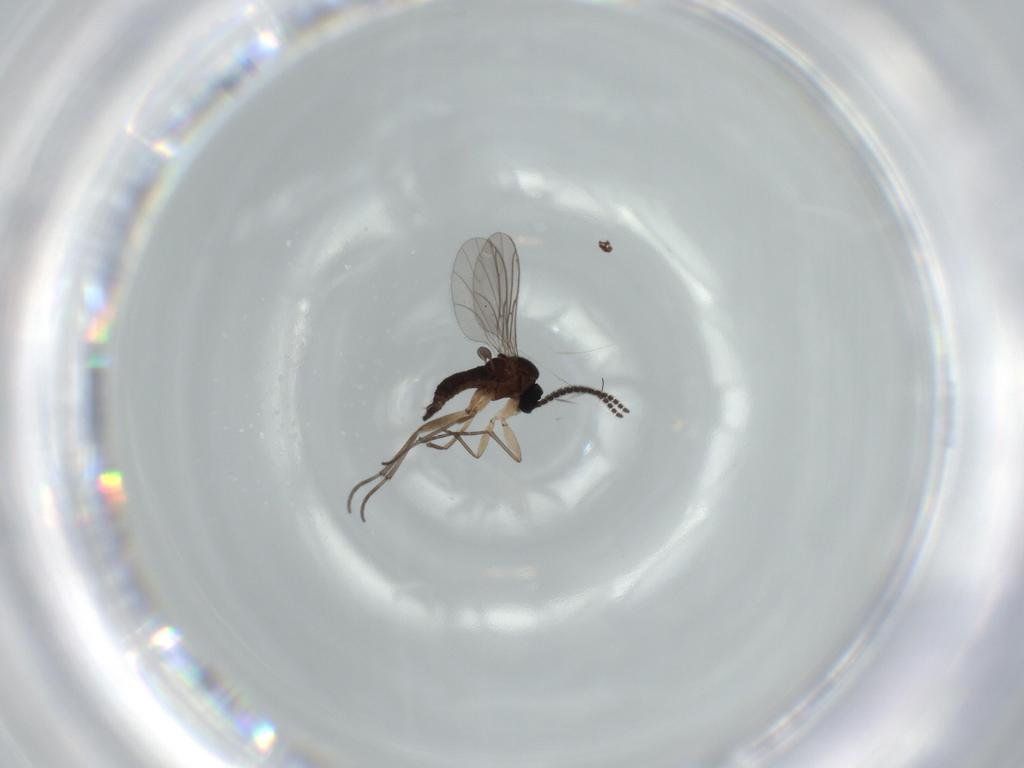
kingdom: Animalia
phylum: Arthropoda
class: Insecta
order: Diptera
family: Sciaridae
